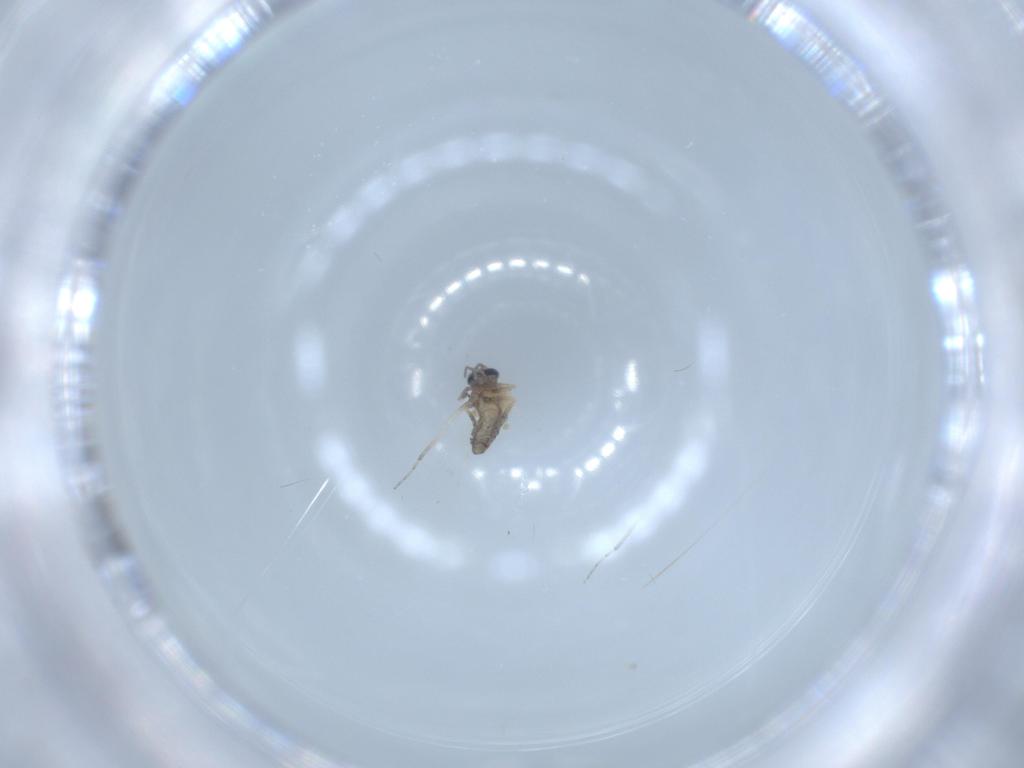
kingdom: Animalia
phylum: Arthropoda
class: Insecta
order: Diptera
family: Ceratopogonidae
